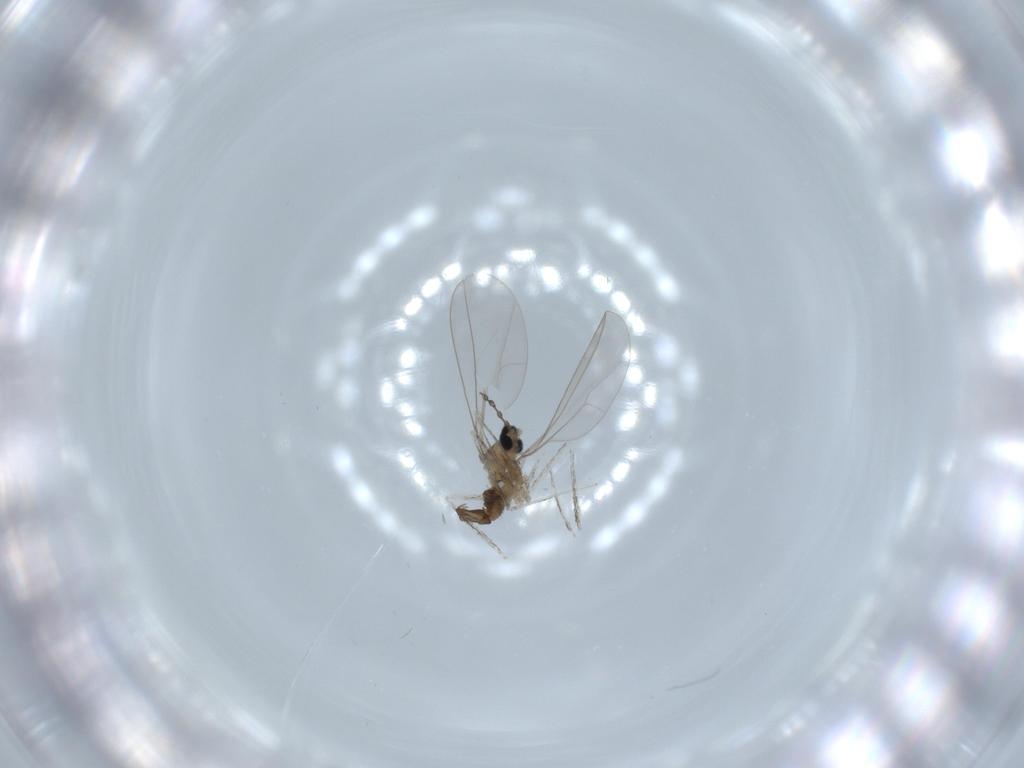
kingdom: Animalia
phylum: Arthropoda
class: Insecta
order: Diptera
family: Cecidomyiidae
